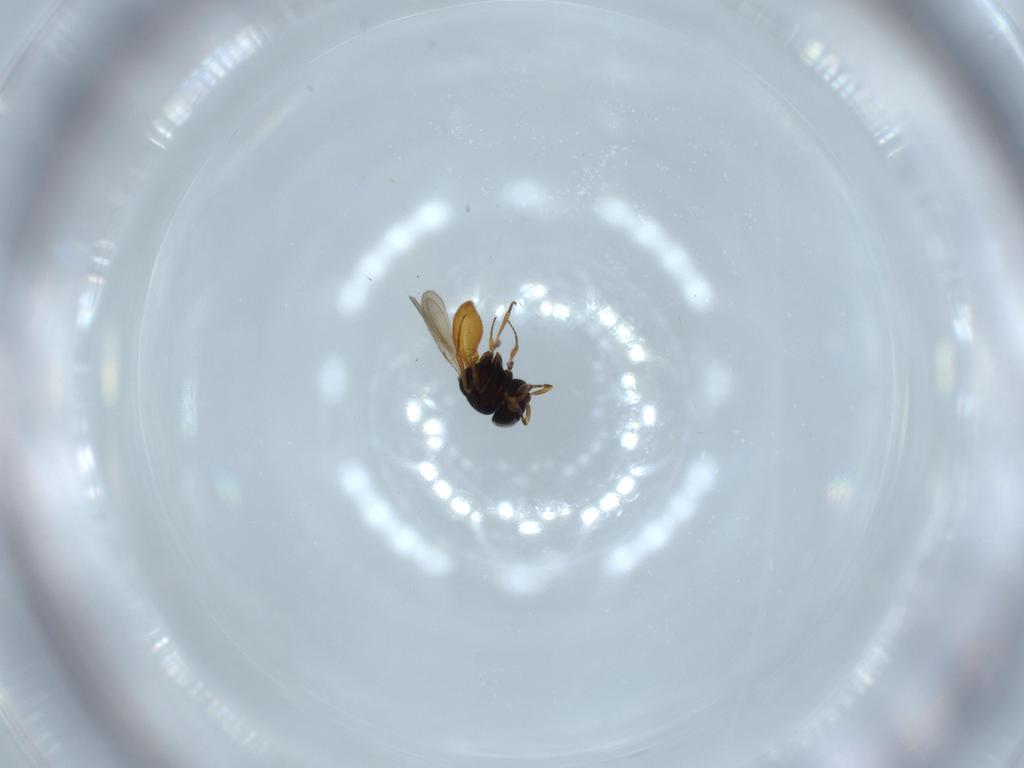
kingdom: Animalia
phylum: Arthropoda
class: Insecta
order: Hymenoptera
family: Scelionidae
